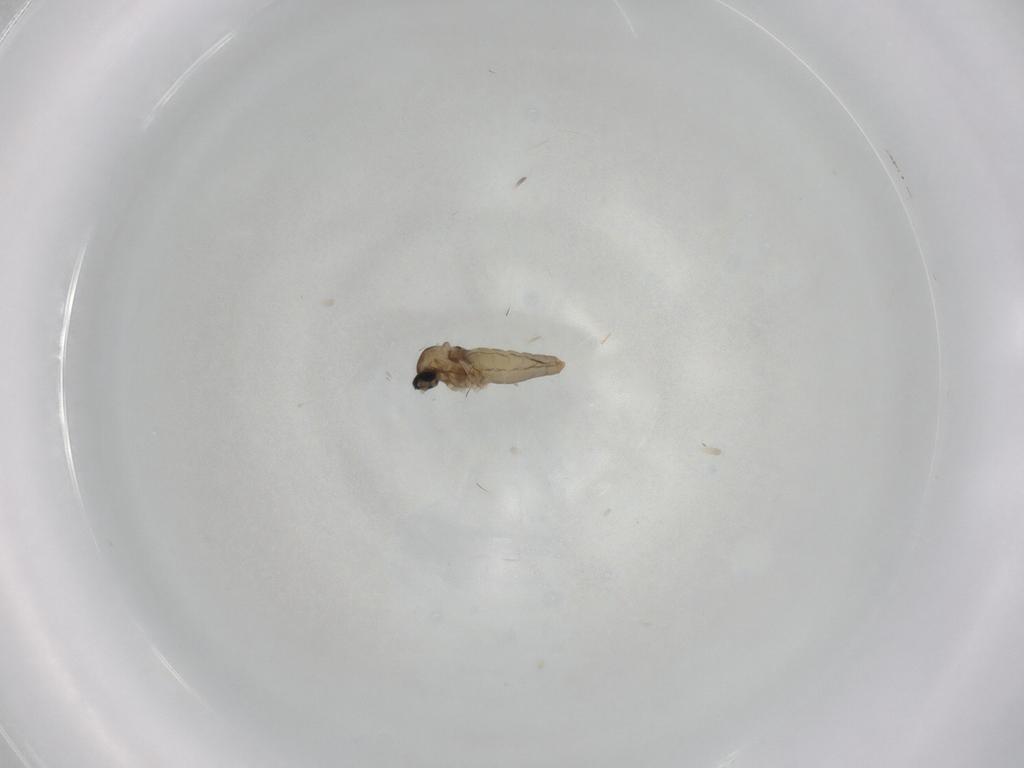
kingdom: Animalia
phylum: Arthropoda
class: Insecta
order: Diptera
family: Cecidomyiidae
